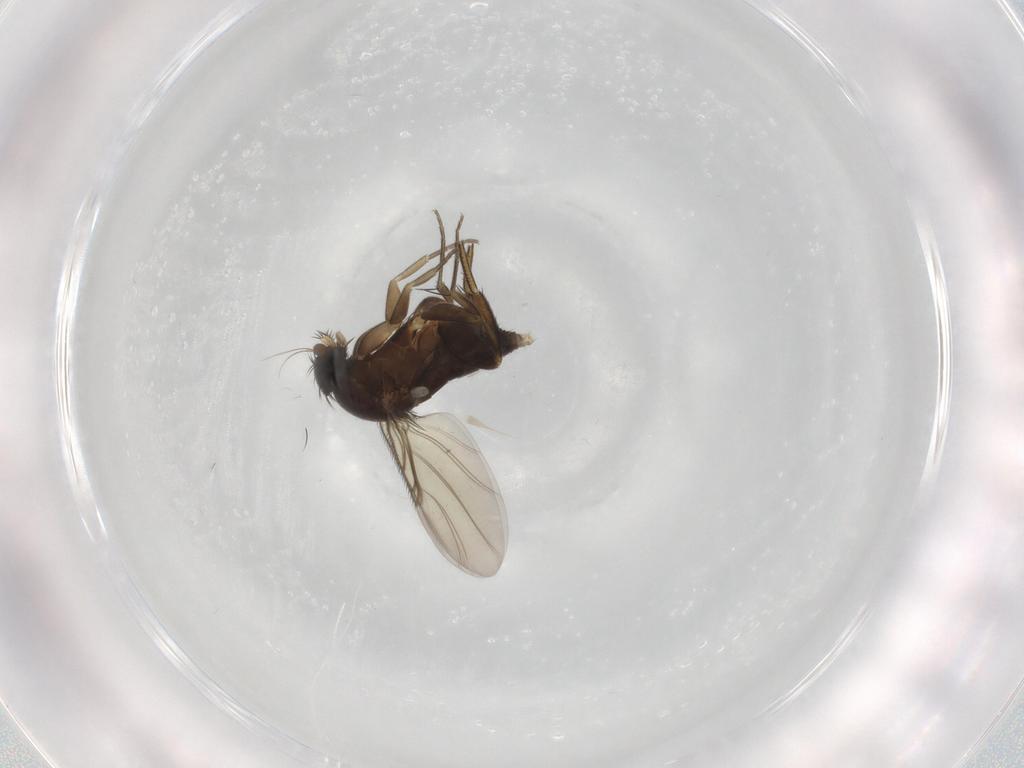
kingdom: Animalia
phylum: Arthropoda
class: Insecta
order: Diptera
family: Phoridae
